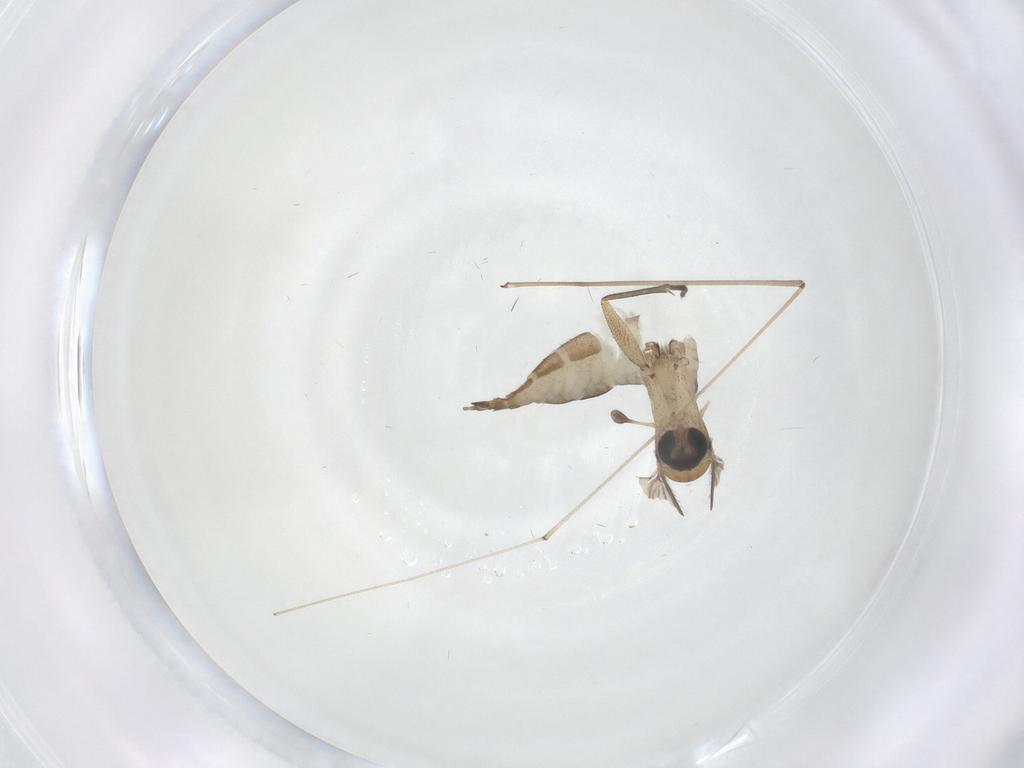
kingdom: Animalia
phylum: Arthropoda
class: Insecta
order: Diptera
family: Sciaridae
